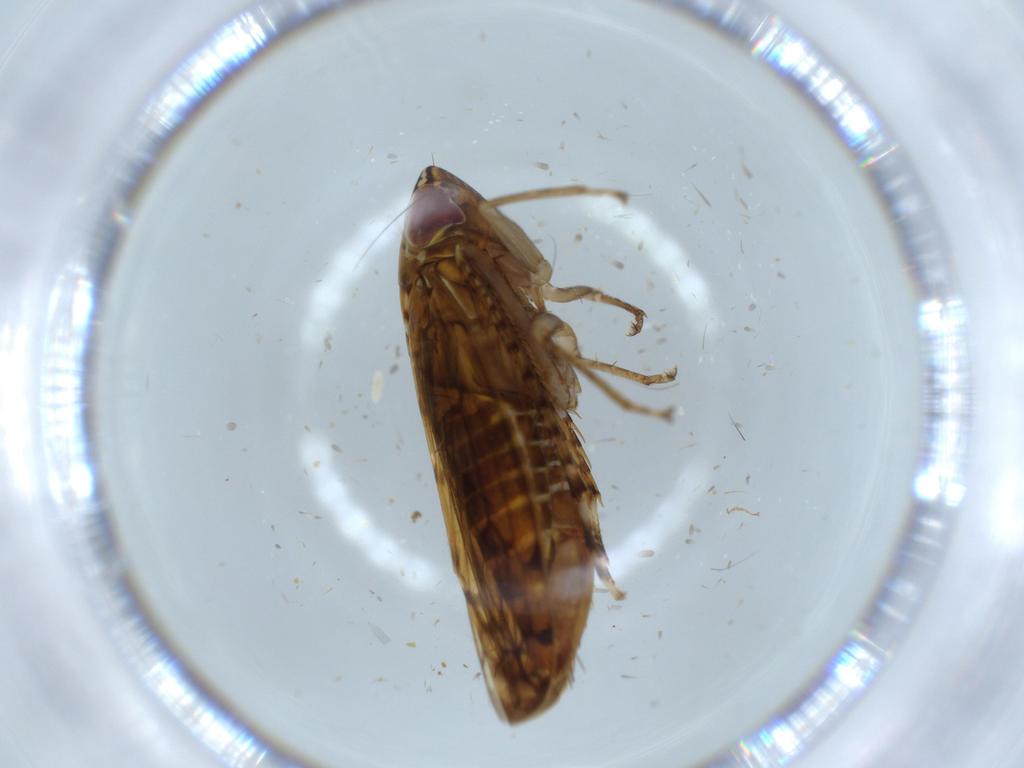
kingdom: Animalia
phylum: Arthropoda
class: Insecta
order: Hemiptera
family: Cicadellidae
